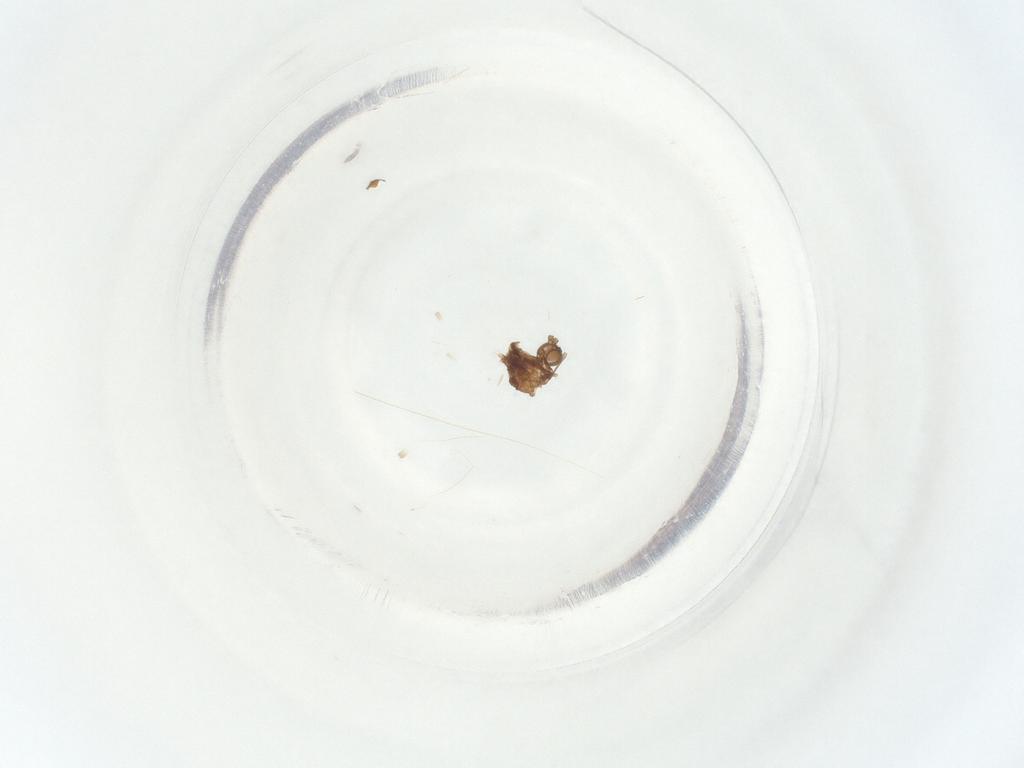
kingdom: Animalia
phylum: Arthropoda
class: Insecta
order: Diptera
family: Sciaridae
